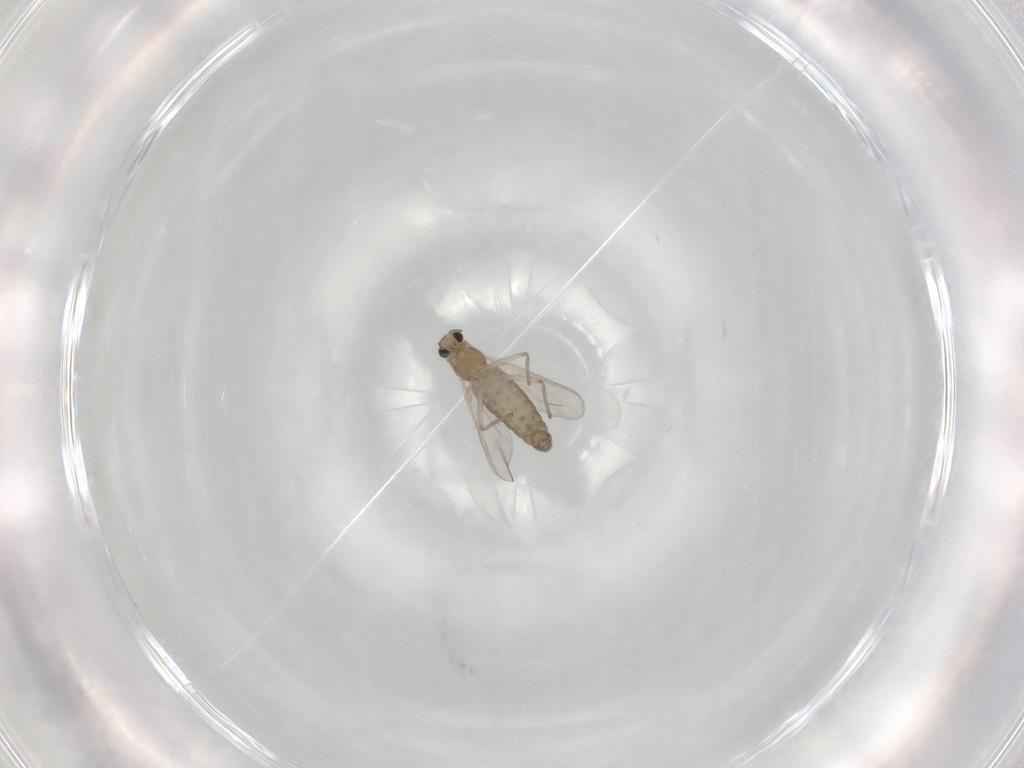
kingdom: Animalia
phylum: Arthropoda
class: Insecta
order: Diptera
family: Chironomidae
